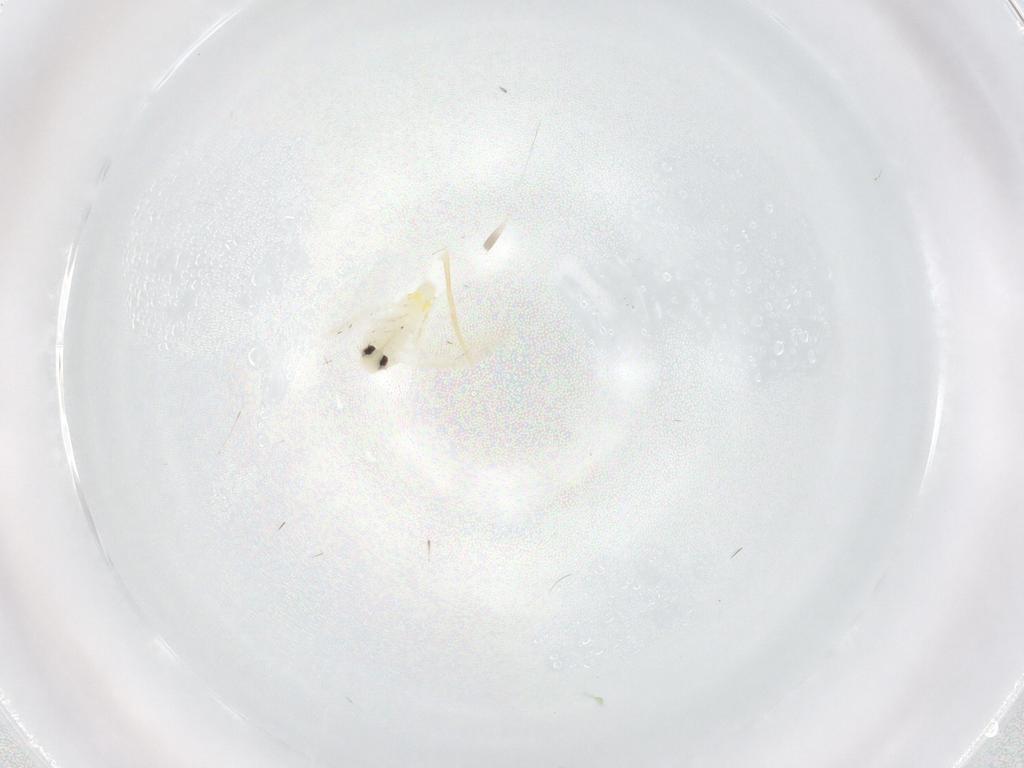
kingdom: Animalia
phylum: Arthropoda
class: Insecta
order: Hemiptera
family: Aleyrodidae
